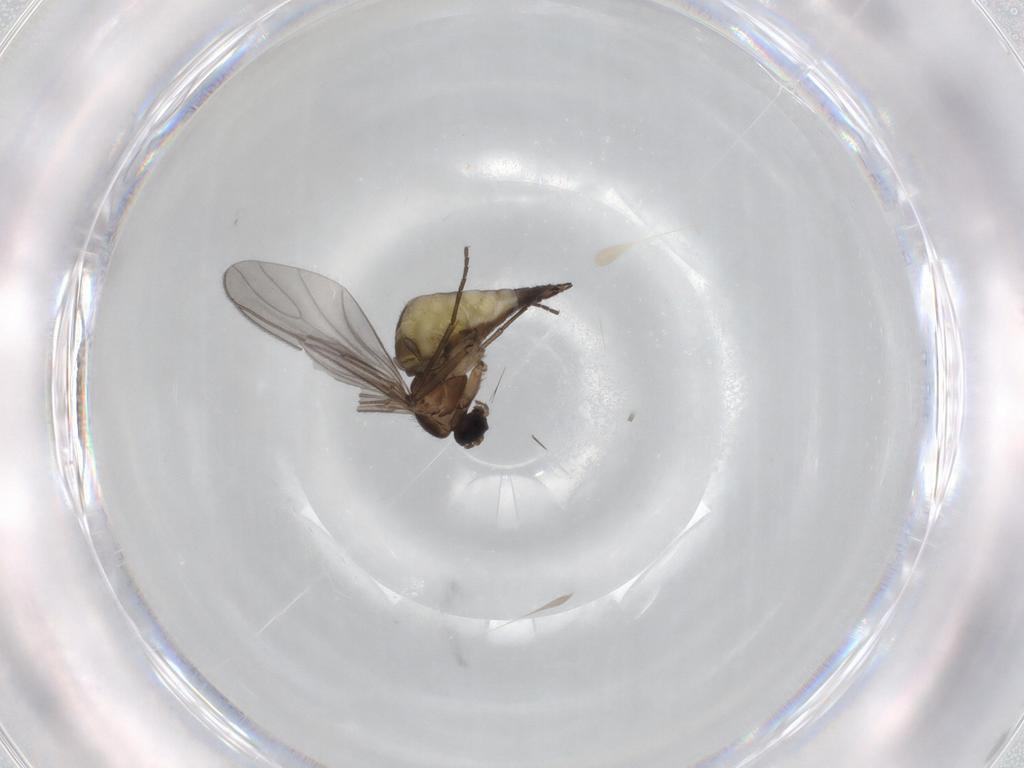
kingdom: Animalia
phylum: Arthropoda
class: Insecta
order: Diptera
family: Sciaridae
